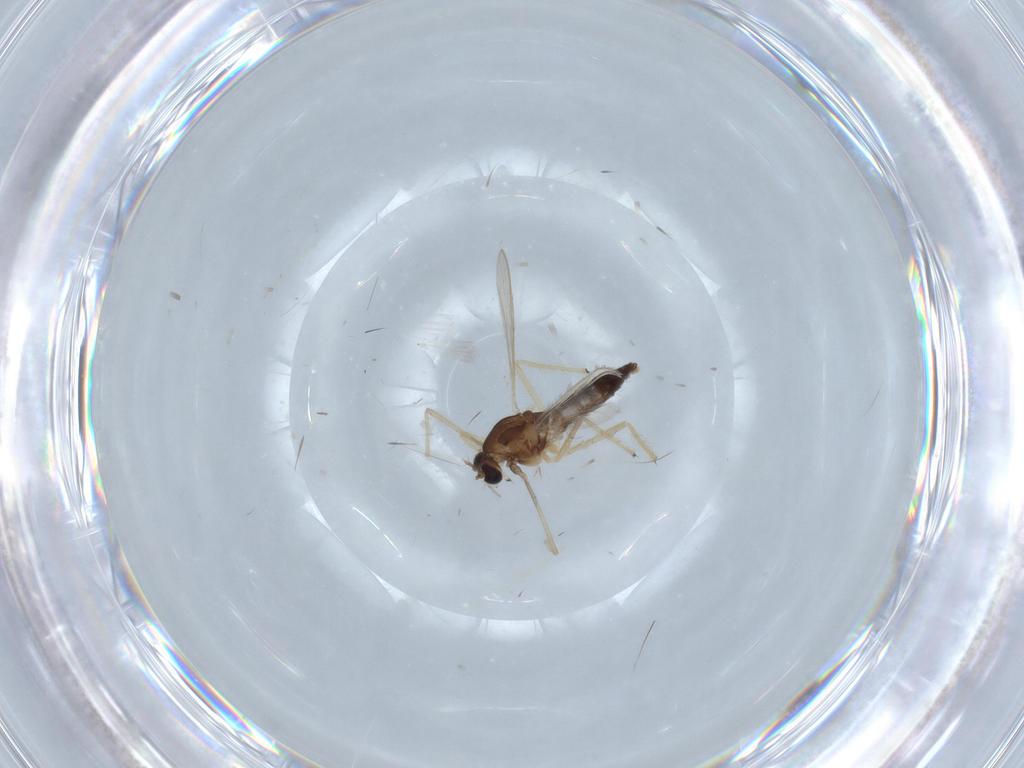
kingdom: Animalia
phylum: Arthropoda
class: Insecta
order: Diptera
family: Chironomidae
